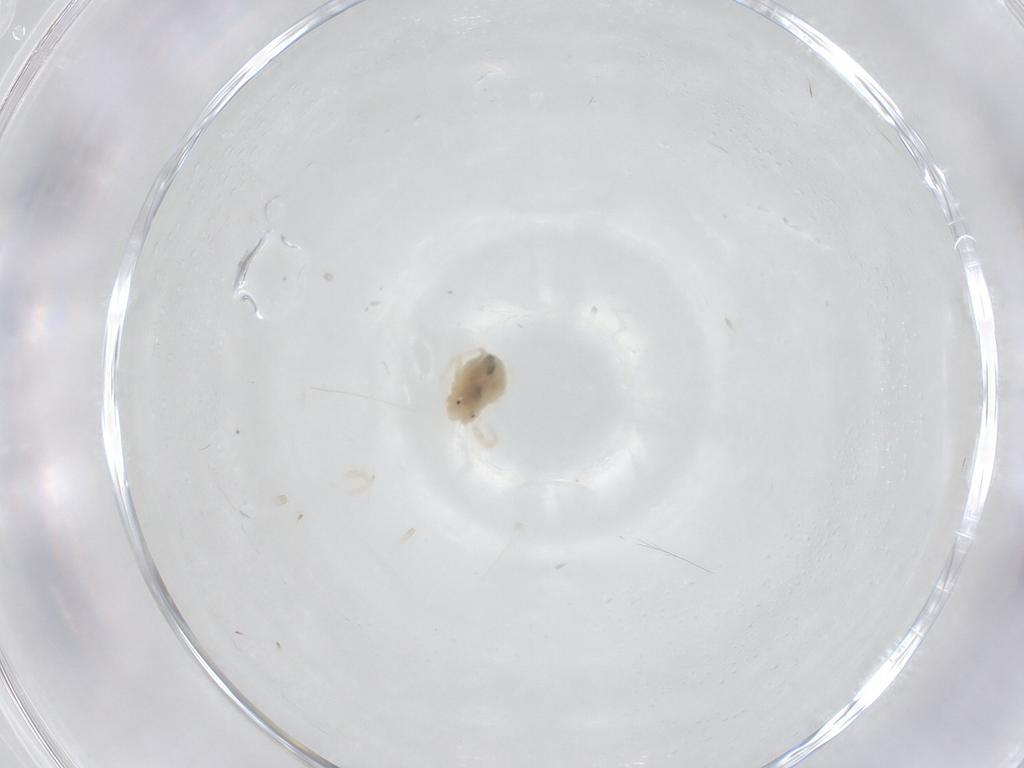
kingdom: Animalia
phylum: Arthropoda
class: Arachnida
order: Trombidiformes
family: Anystidae
